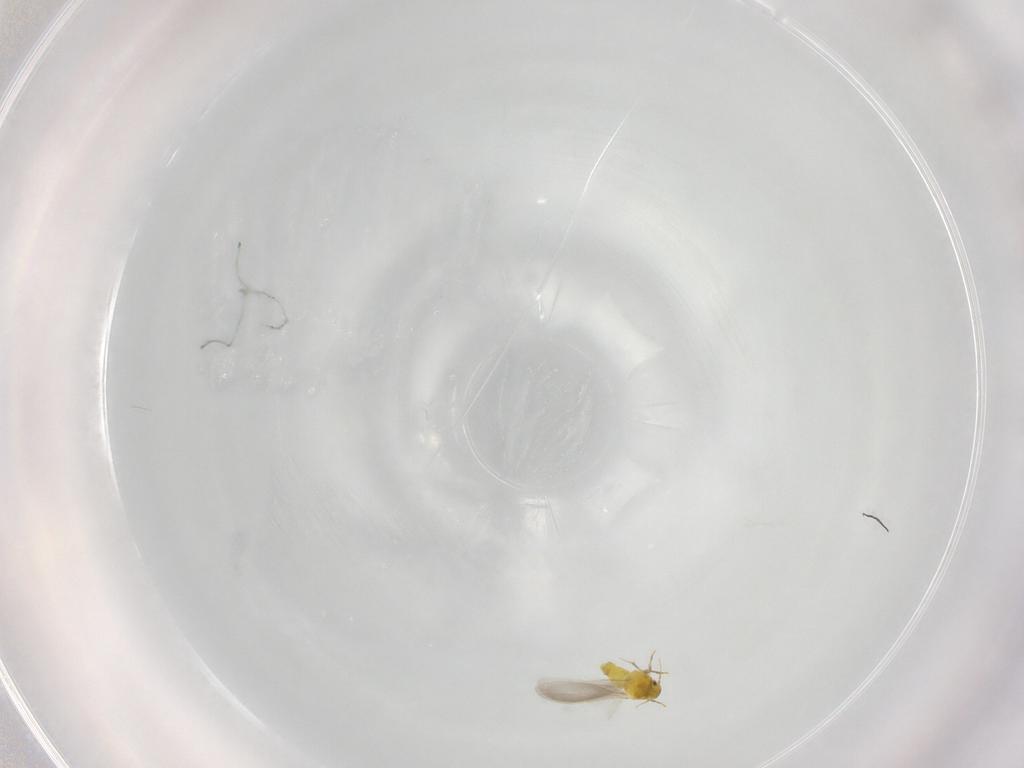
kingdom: Animalia
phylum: Arthropoda
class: Insecta
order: Hemiptera
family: Aleyrodidae
